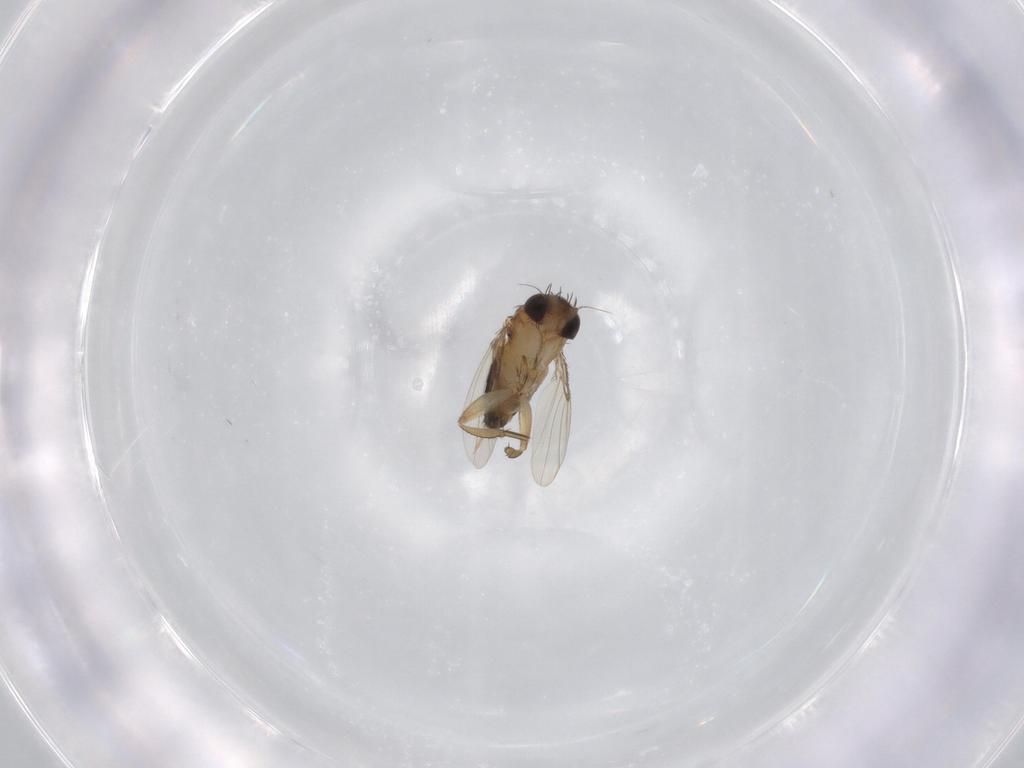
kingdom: Animalia
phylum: Arthropoda
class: Insecta
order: Diptera
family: Phoridae
